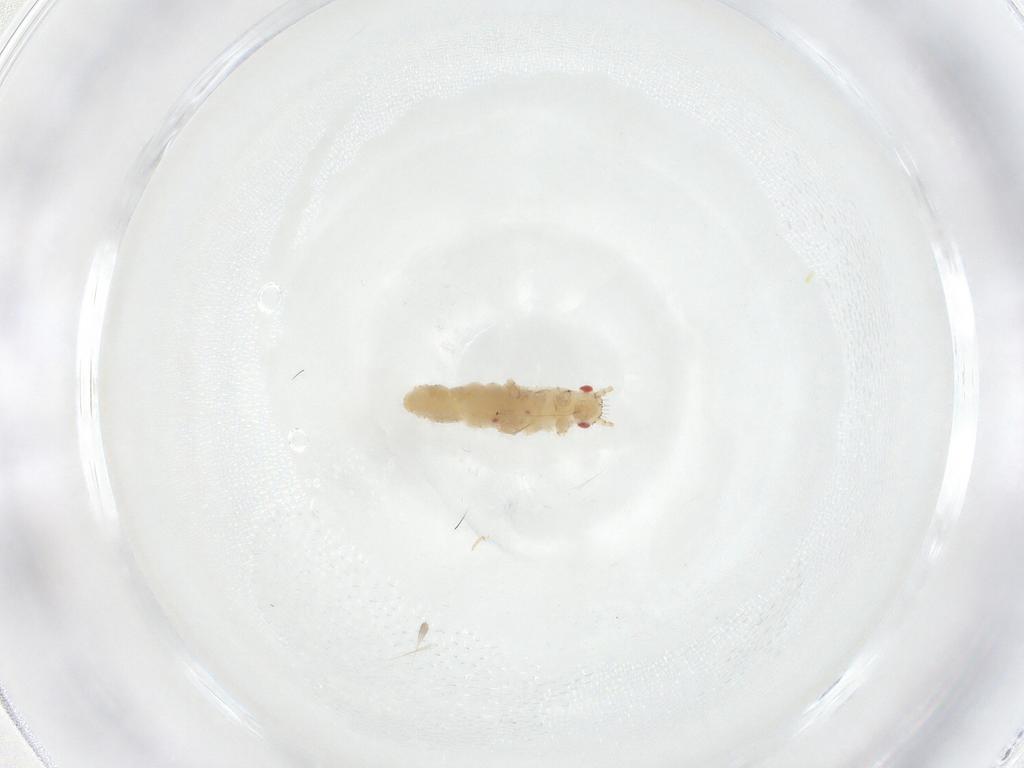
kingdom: Animalia
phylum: Arthropoda
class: Insecta
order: Hemiptera
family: Aphididae
